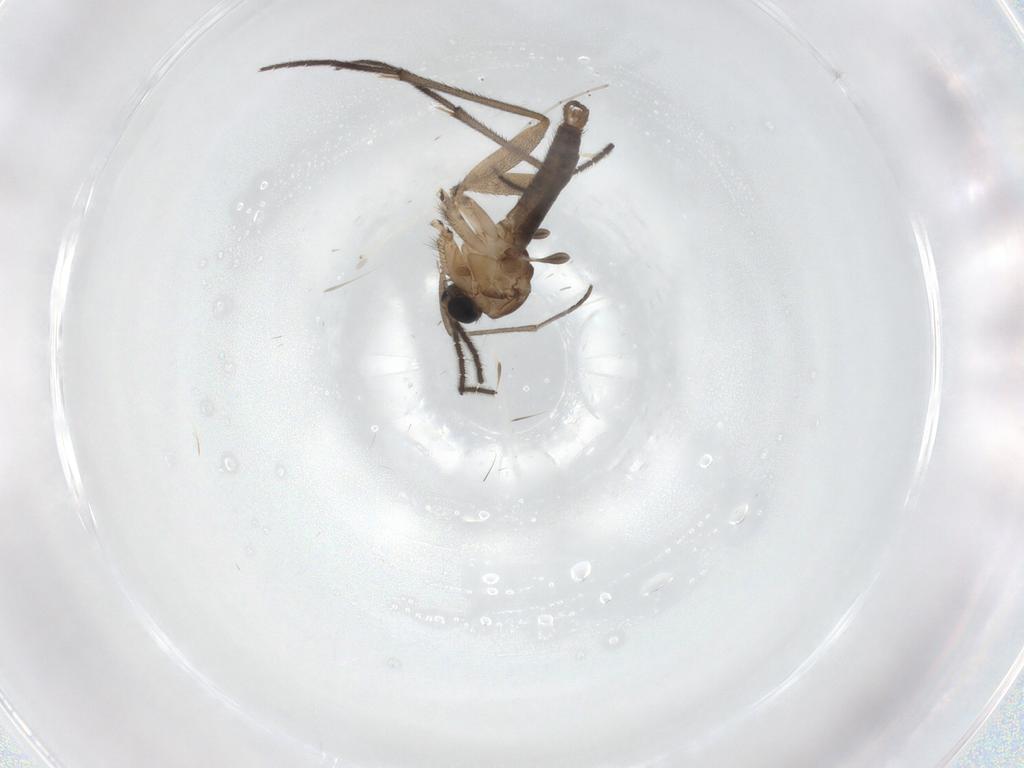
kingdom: Animalia
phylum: Arthropoda
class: Insecta
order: Diptera
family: Sciaridae
